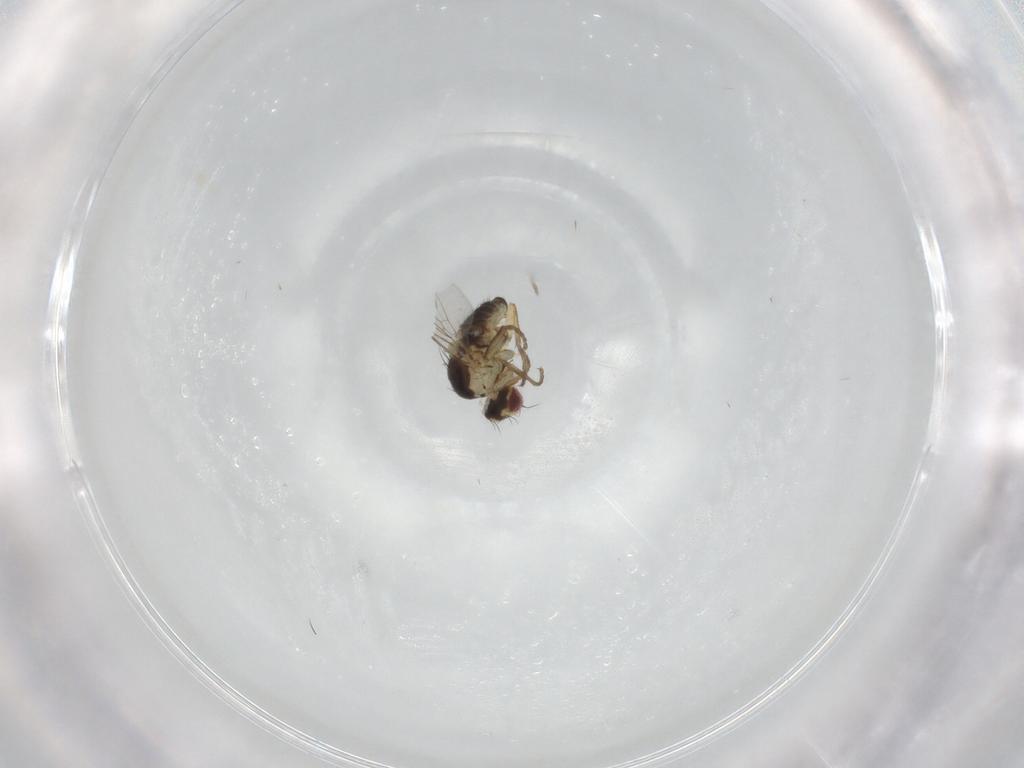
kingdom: Animalia
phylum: Arthropoda
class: Insecta
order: Diptera
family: Agromyzidae
